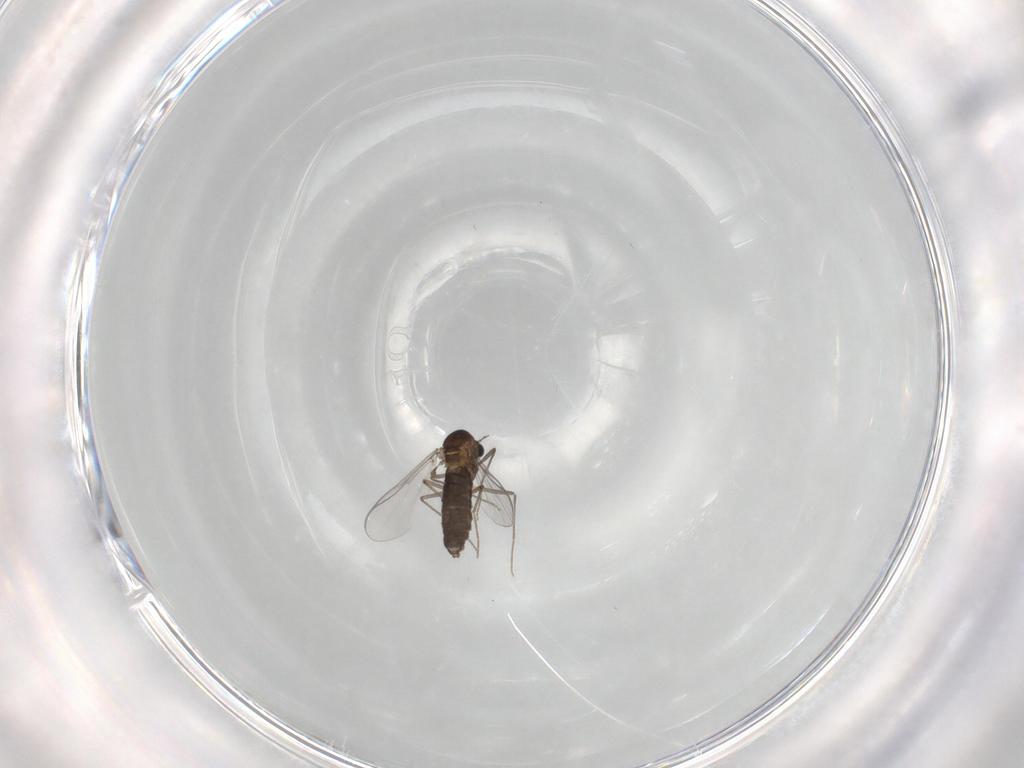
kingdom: Animalia
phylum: Arthropoda
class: Insecta
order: Diptera
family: Chironomidae
